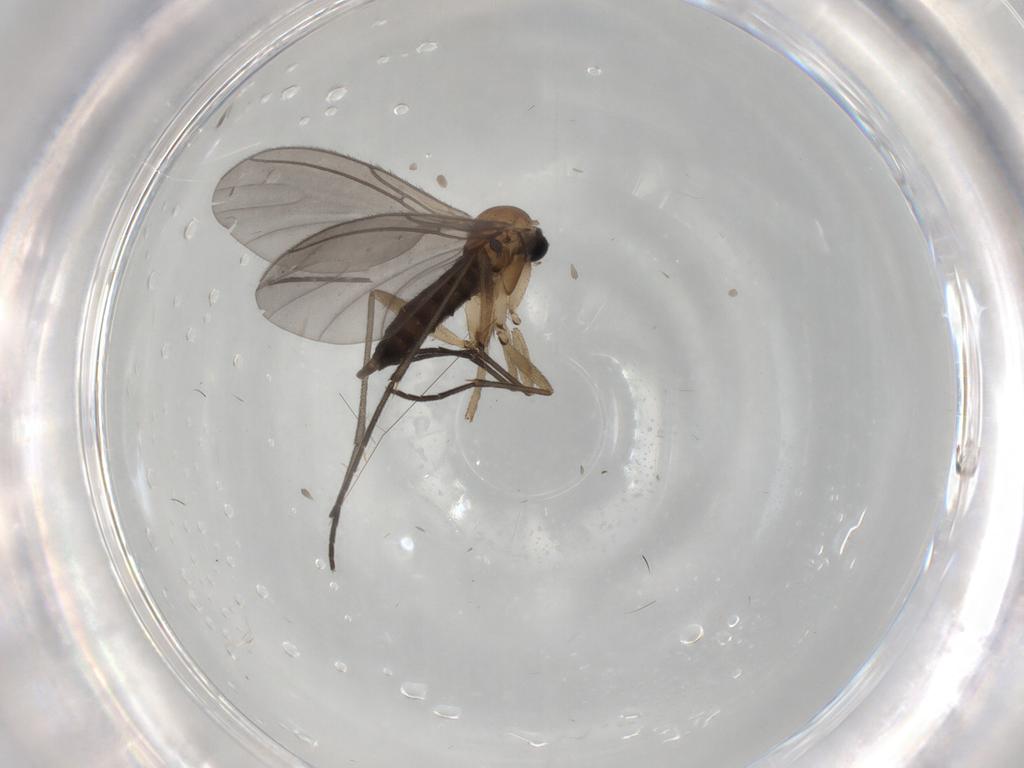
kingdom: Animalia
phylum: Arthropoda
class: Insecta
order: Diptera
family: Sciaridae
